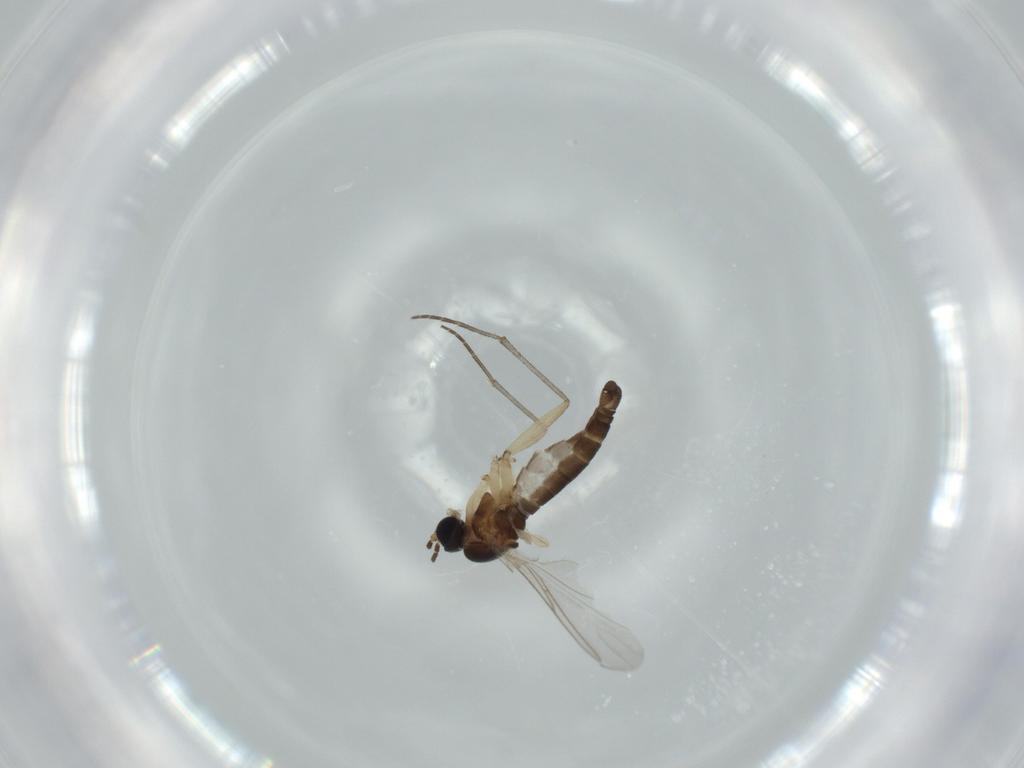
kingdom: Animalia
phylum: Arthropoda
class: Insecta
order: Diptera
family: Sciaridae
